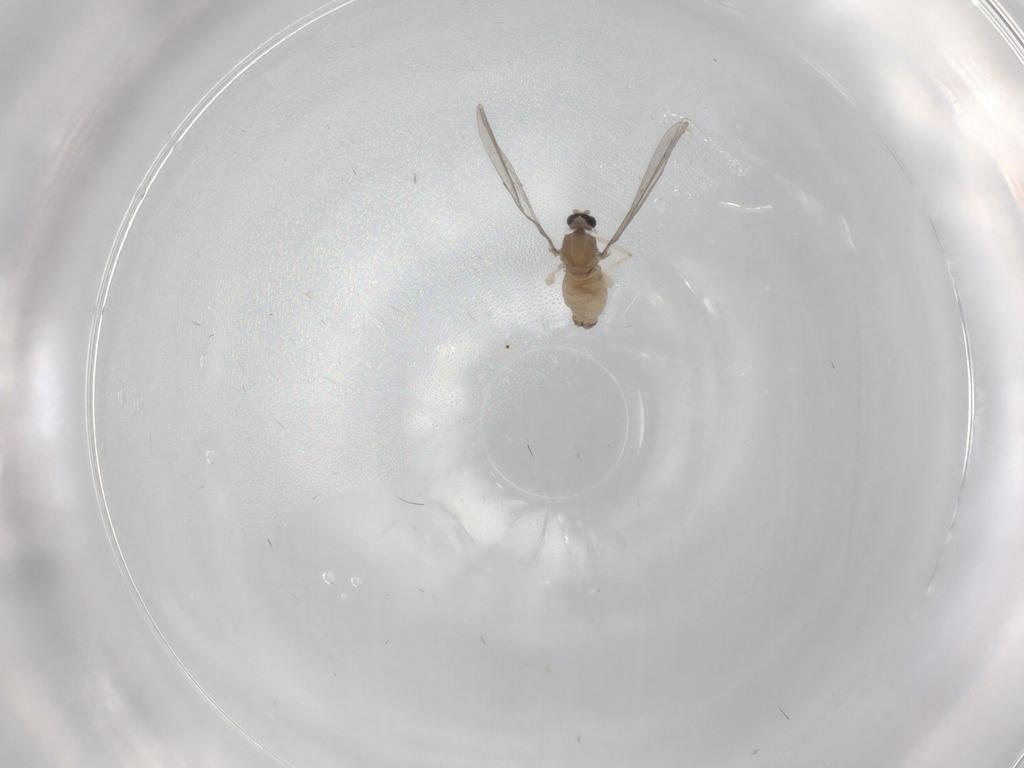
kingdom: Animalia
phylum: Arthropoda
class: Insecta
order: Diptera
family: Cecidomyiidae
